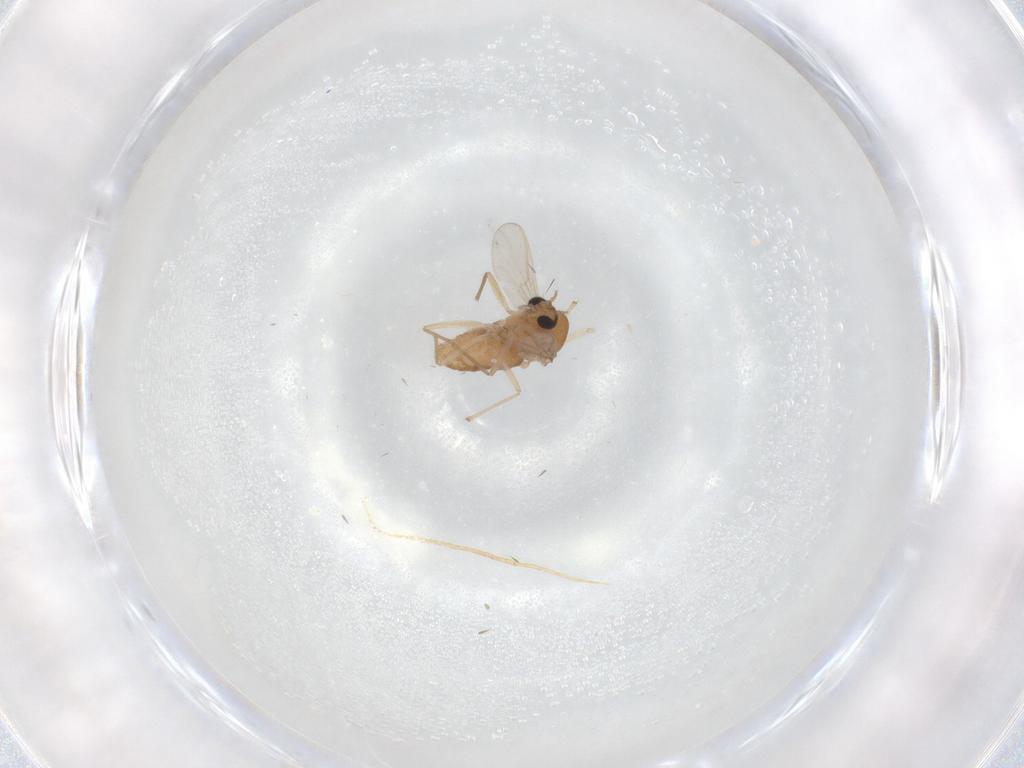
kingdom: Animalia
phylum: Arthropoda
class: Insecta
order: Diptera
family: Chironomidae
